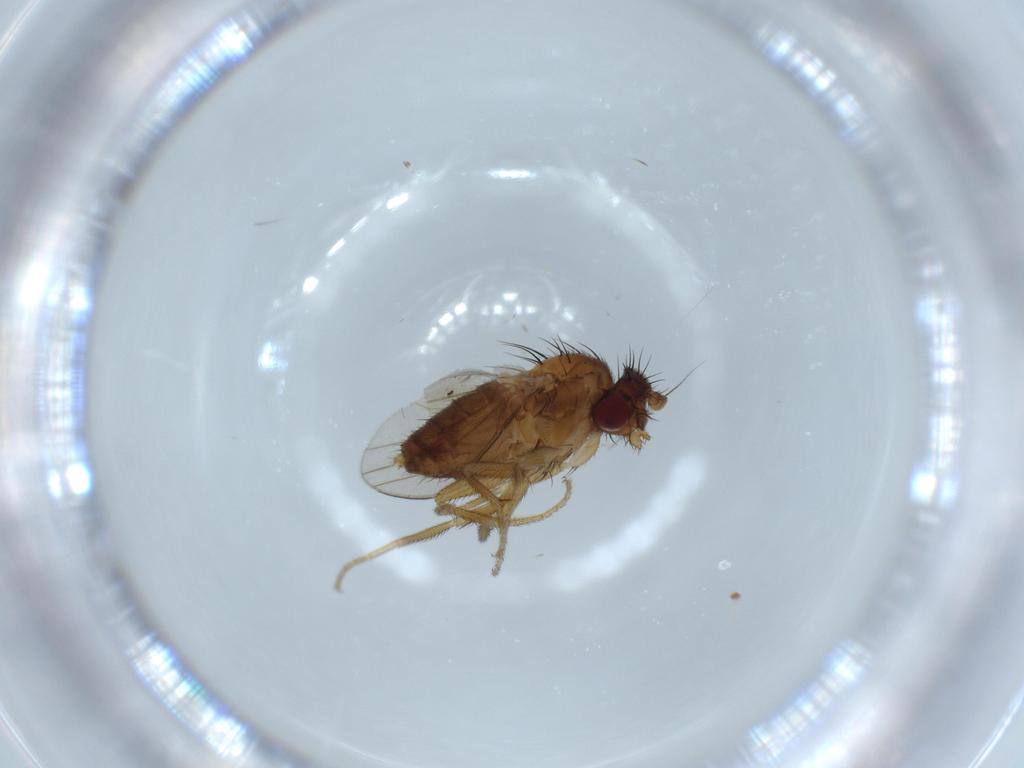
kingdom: Animalia
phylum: Arthropoda
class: Insecta
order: Diptera
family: Milichiidae
